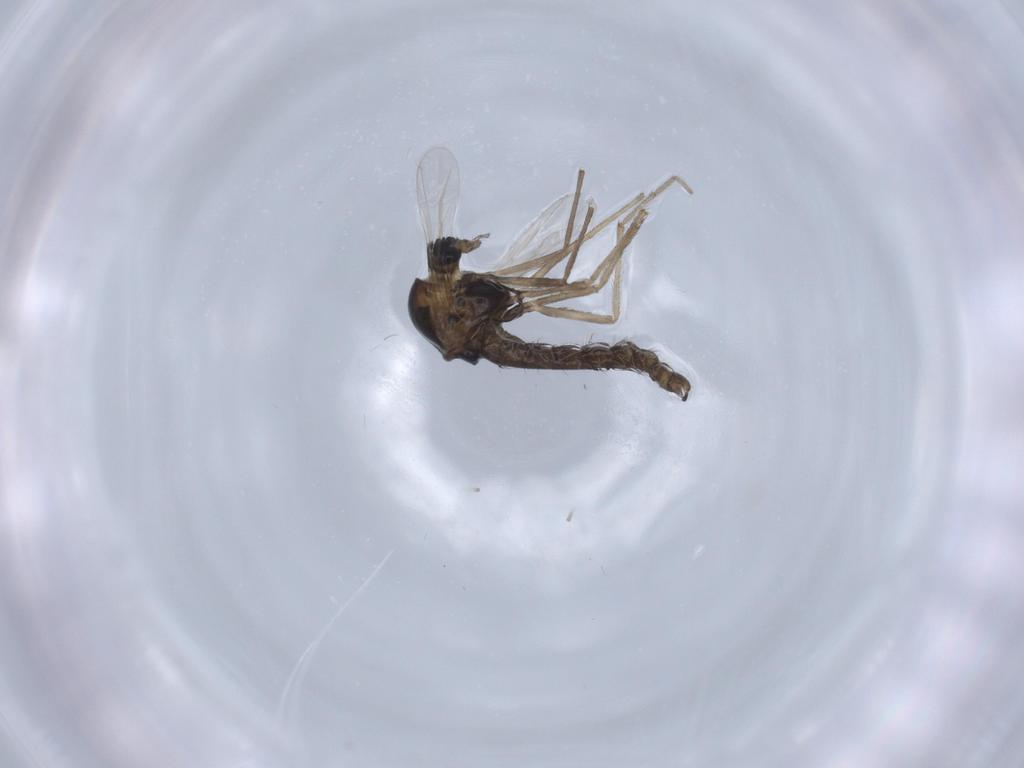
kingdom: Animalia
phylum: Arthropoda
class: Insecta
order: Diptera
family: Chironomidae
